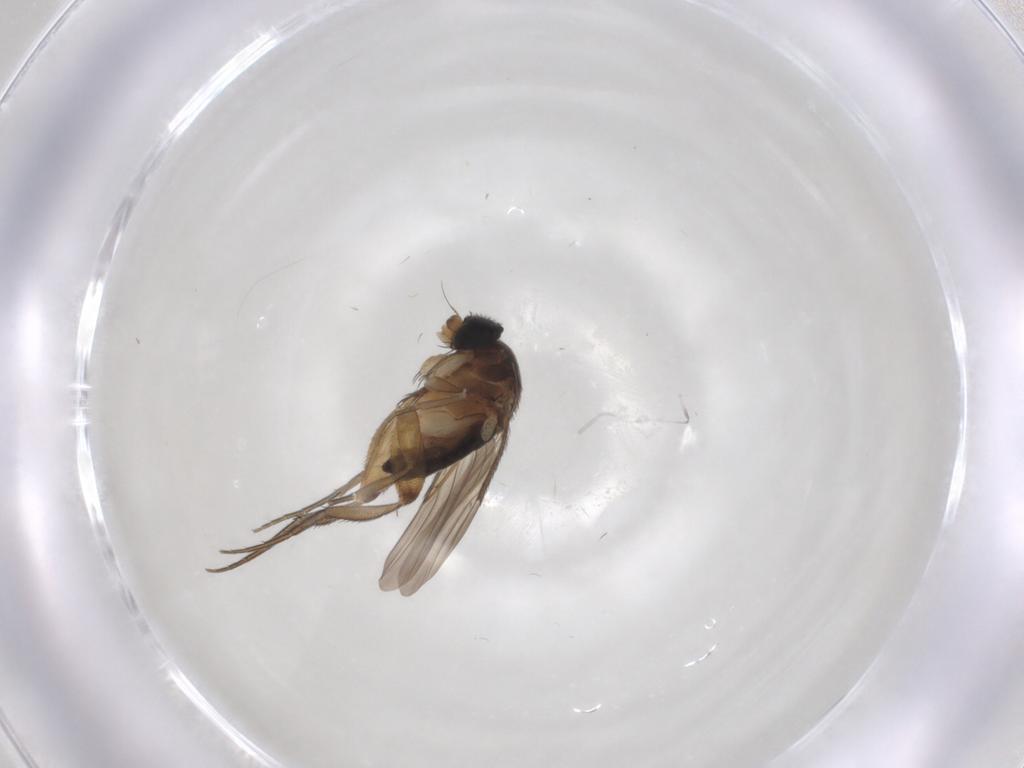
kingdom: Animalia
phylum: Arthropoda
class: Insecta
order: Diptera
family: Phoridae
